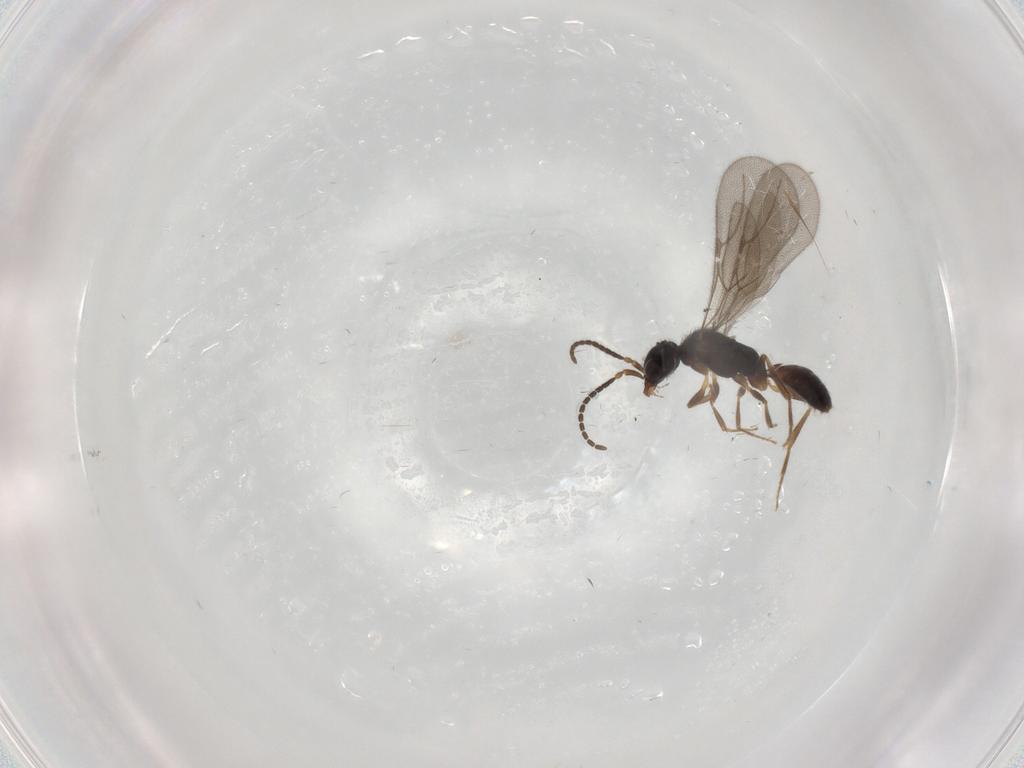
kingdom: Animalia
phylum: Arthropoda
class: Insecta
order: Hymenoptera
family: Bethylidae
